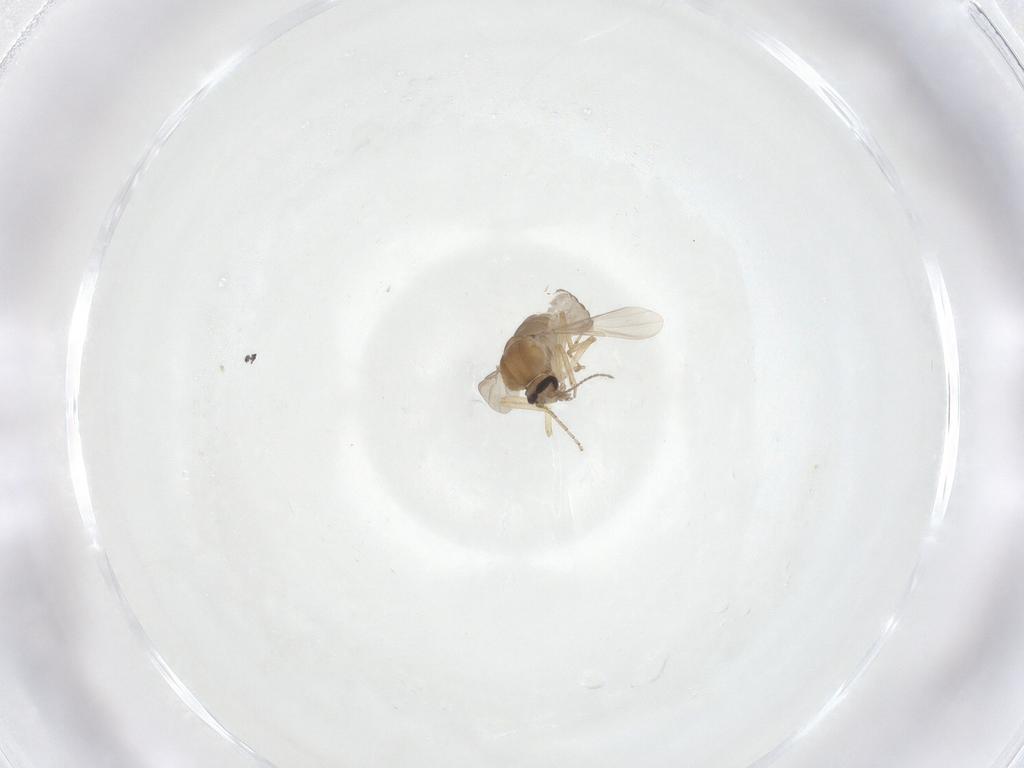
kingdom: Animalia
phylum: Arthropoda
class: Insecta
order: Diptera
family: Ceratopogonidae
